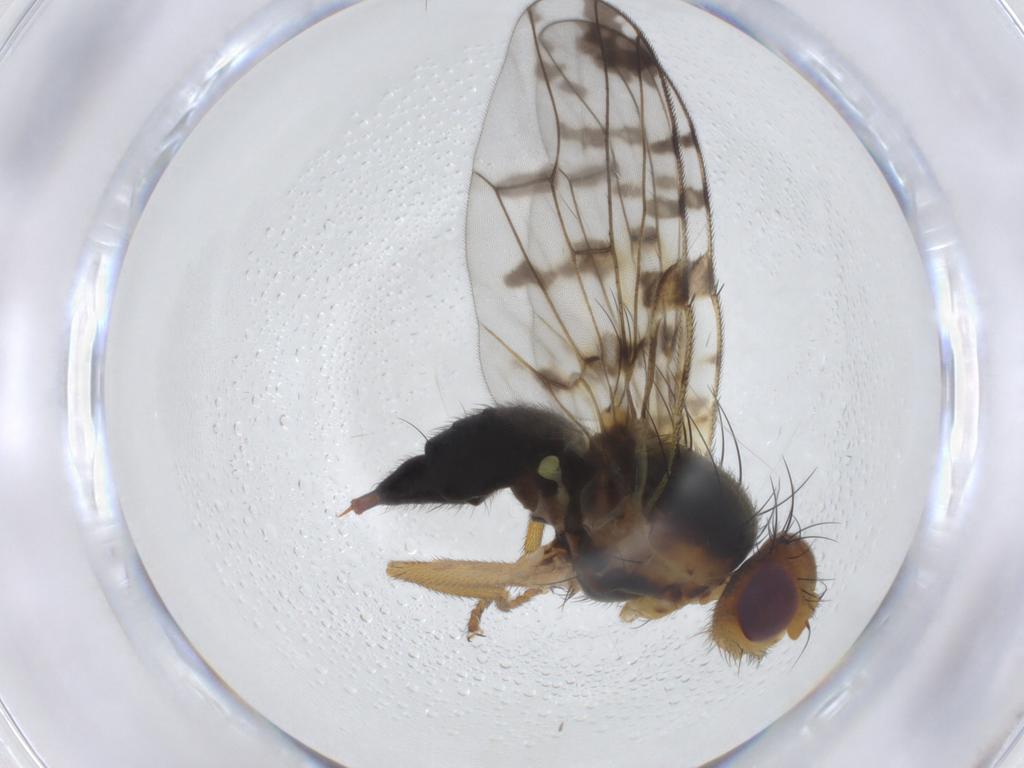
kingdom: Animalia
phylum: Arthropoda
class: Insecta
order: Diptera
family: Tephritidae
